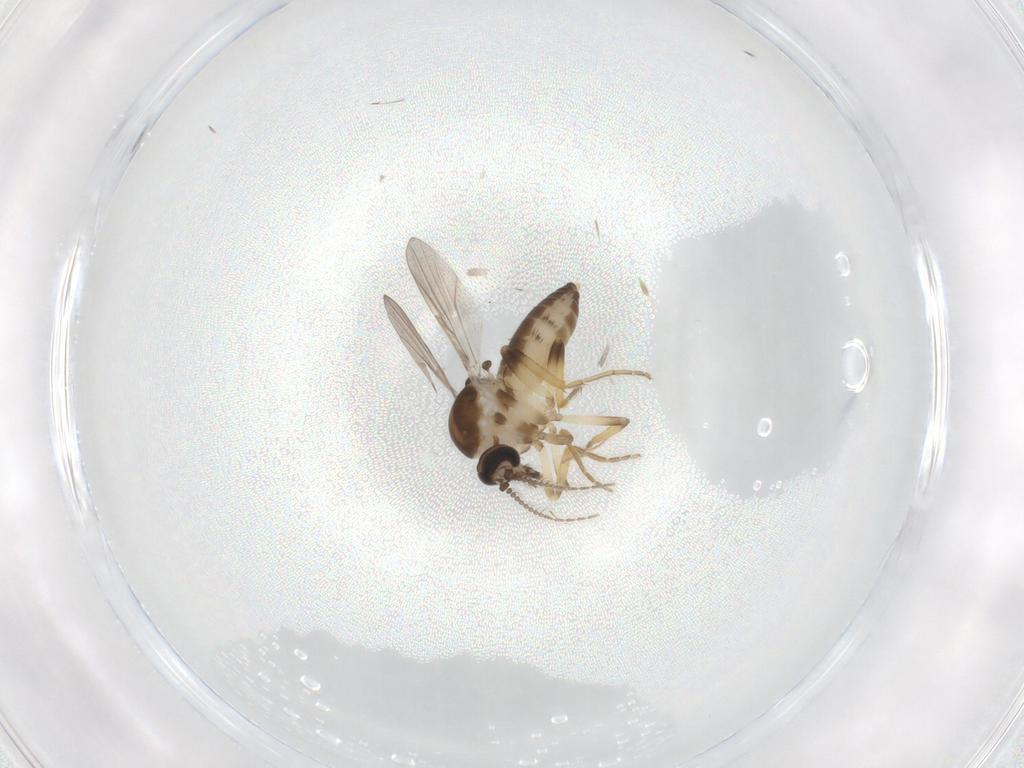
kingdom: Animalia
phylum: Arthropoda
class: Insecta
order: Diptera
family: Ceratopogonidae
